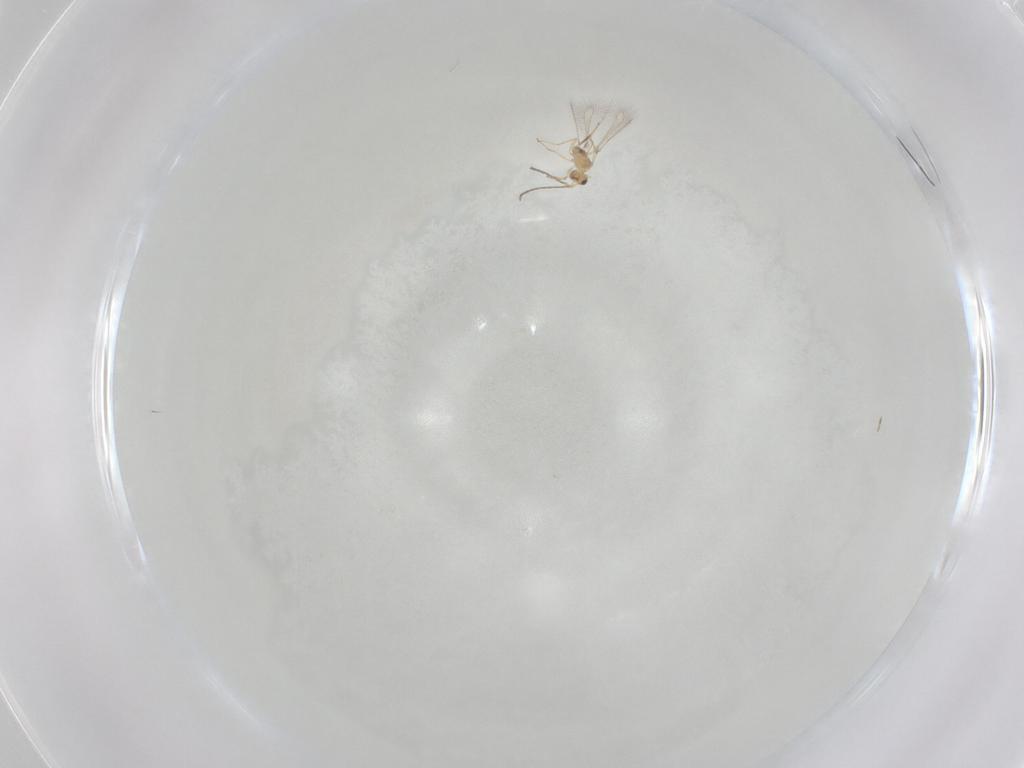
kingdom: Animalia
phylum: Arthropoda
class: Insecta
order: Hymenoptera
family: Mymaridae
